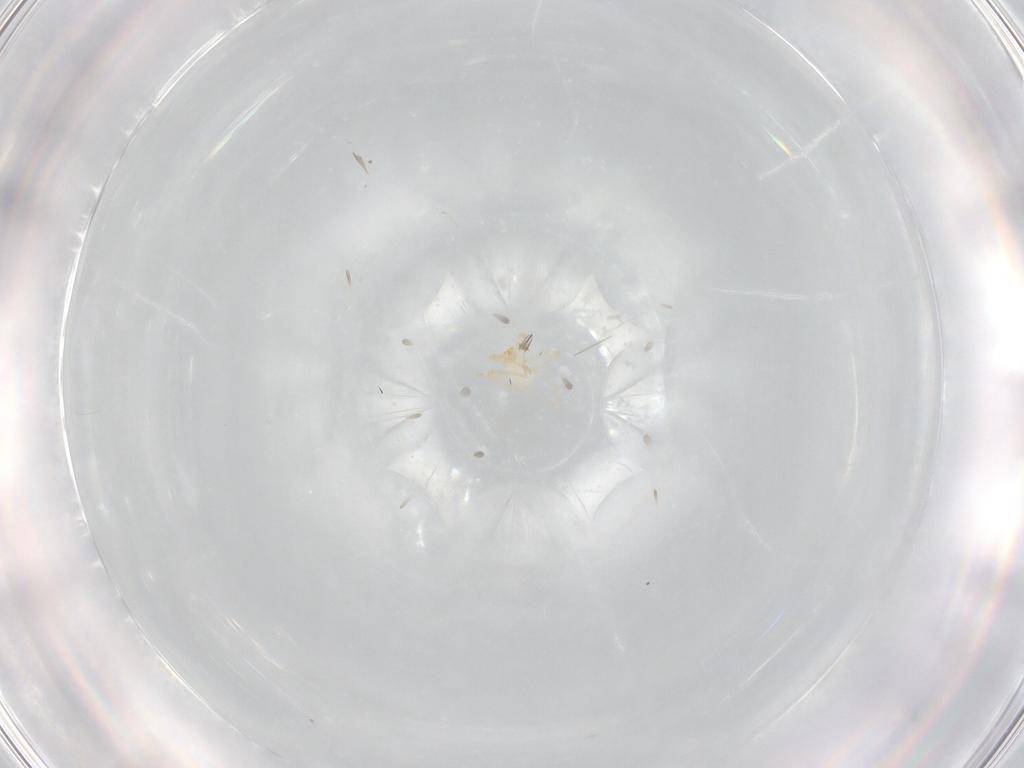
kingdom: Animalia
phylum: Arthropoda
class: Arachnida
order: Trombidiformes
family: Erythraeidae
